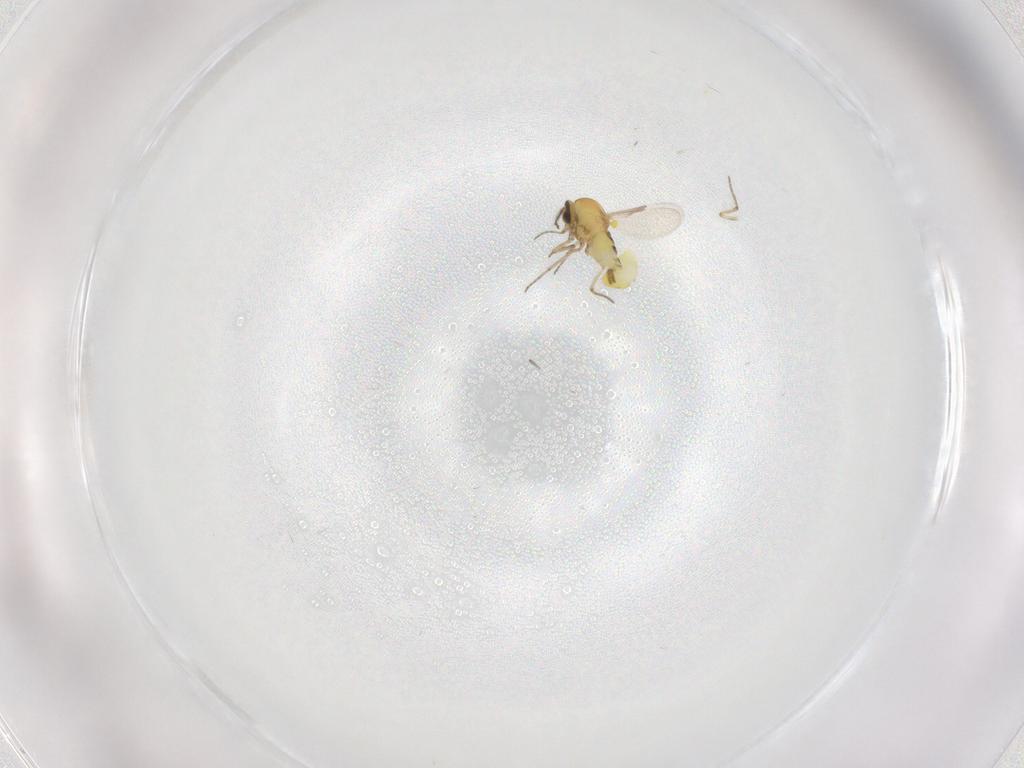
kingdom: Animalia
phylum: Arthropoda
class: Insecta
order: Diptera
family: Ceratopogonidae
